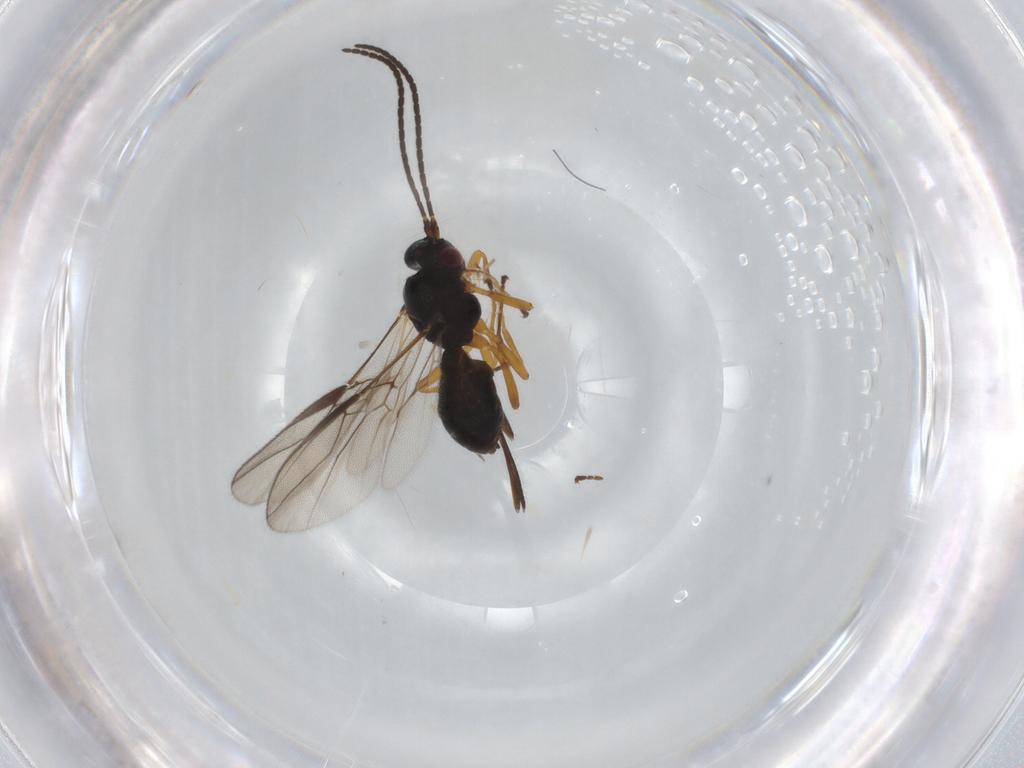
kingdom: Animalia
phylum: Arthropoda
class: Insecta
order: Hymenoptera
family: Braconidae
